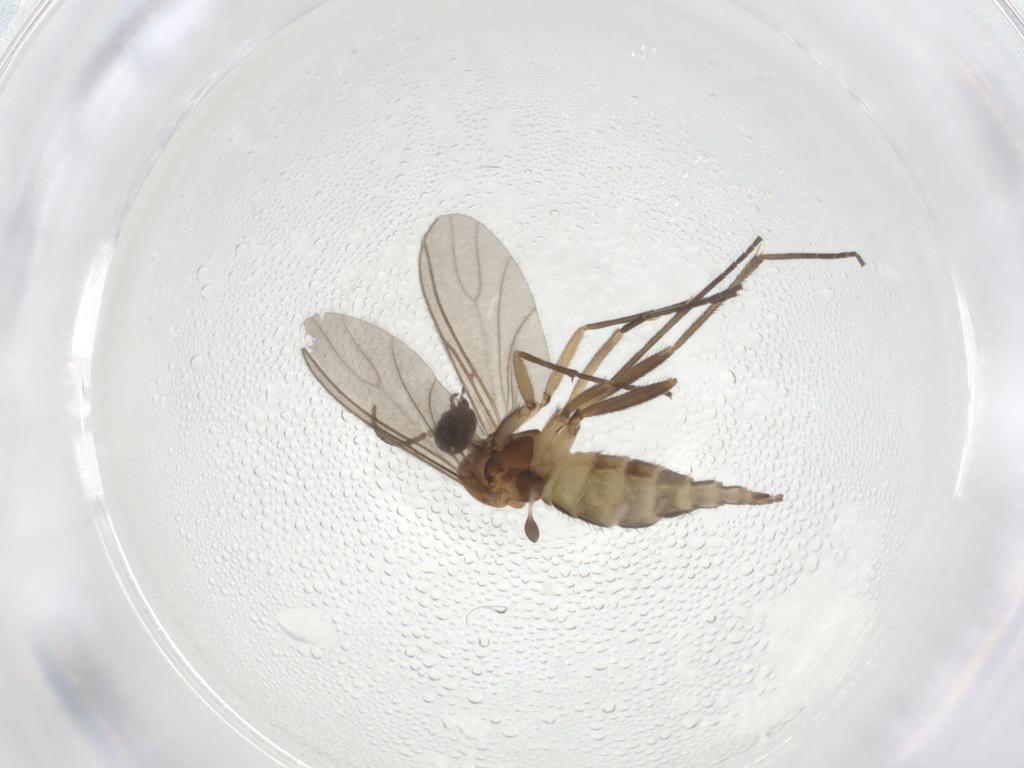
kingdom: Animalia
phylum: Arthropoda
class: Insecta
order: Diptera
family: Sciaridae
